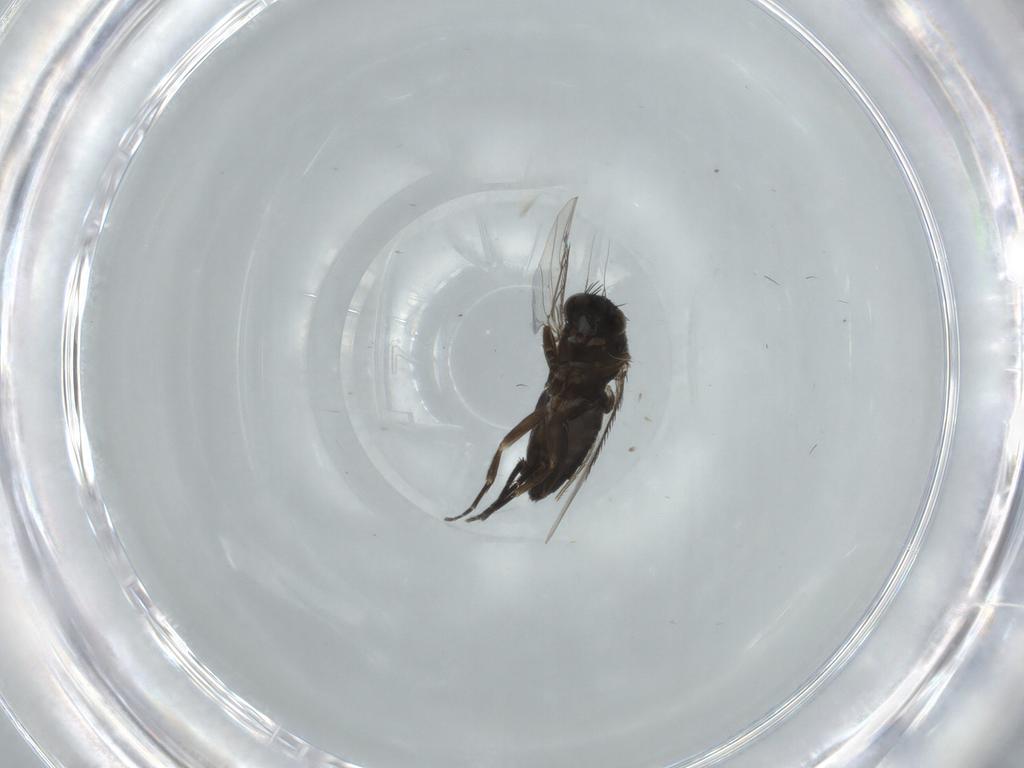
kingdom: Animalia
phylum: Arthropoda
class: Insecta
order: Diptera
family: Phoridae
